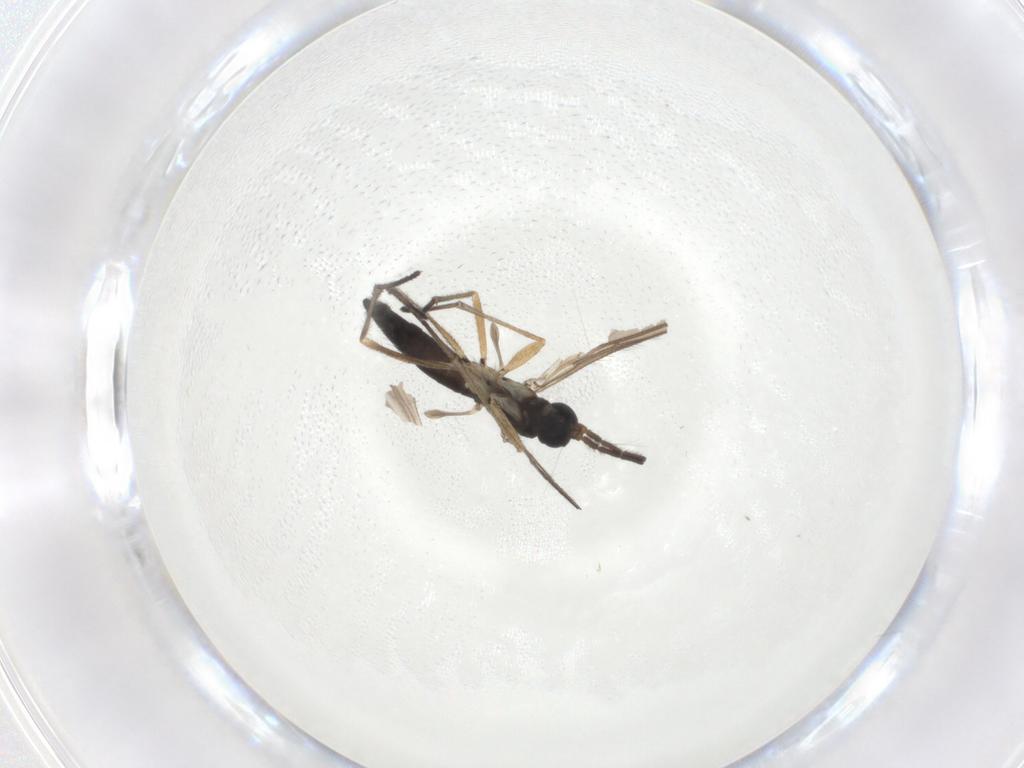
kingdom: Animalia
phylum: Arthropoda
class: Insecta
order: Diptera
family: Sciaridae
